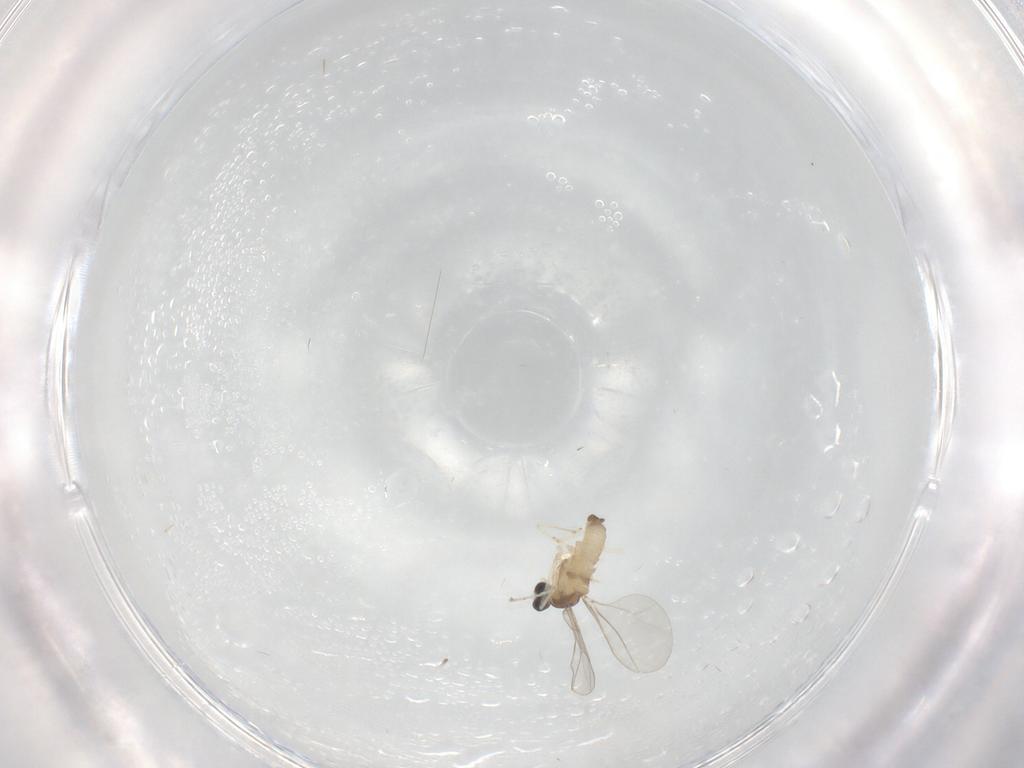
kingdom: Animalia
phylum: Arthropoda
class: Insecta
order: Diptera
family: Cecidomyiidae
